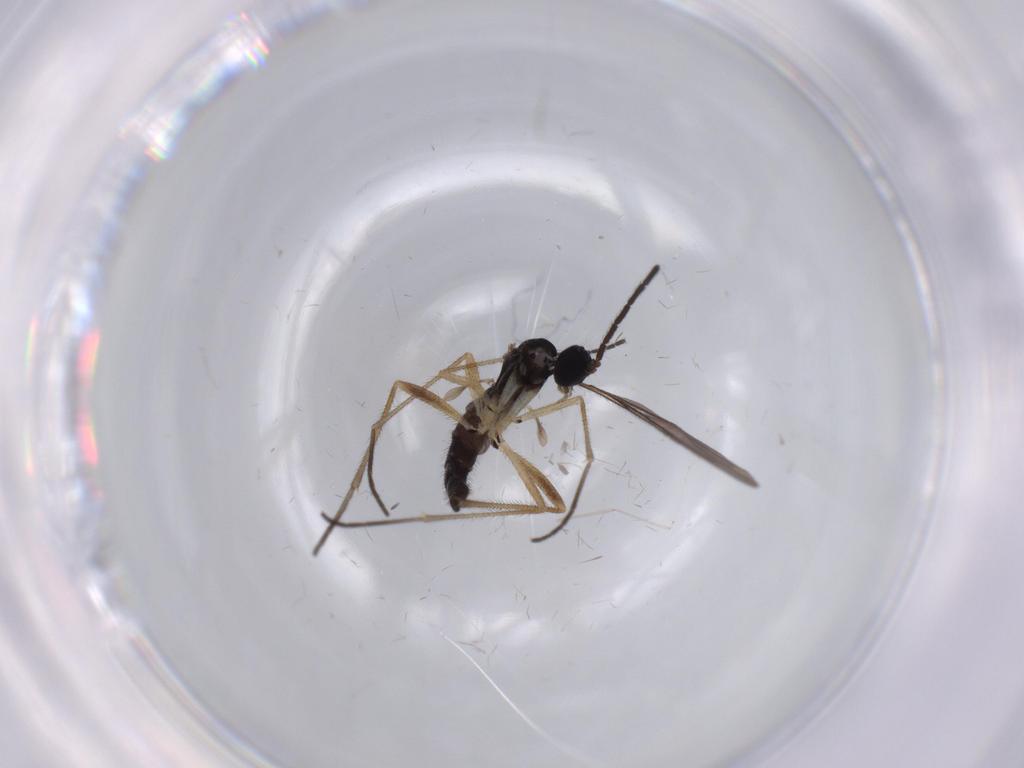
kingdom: Animalia
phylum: Arthropoda
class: Insecta
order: Diptera
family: Sciaridae
